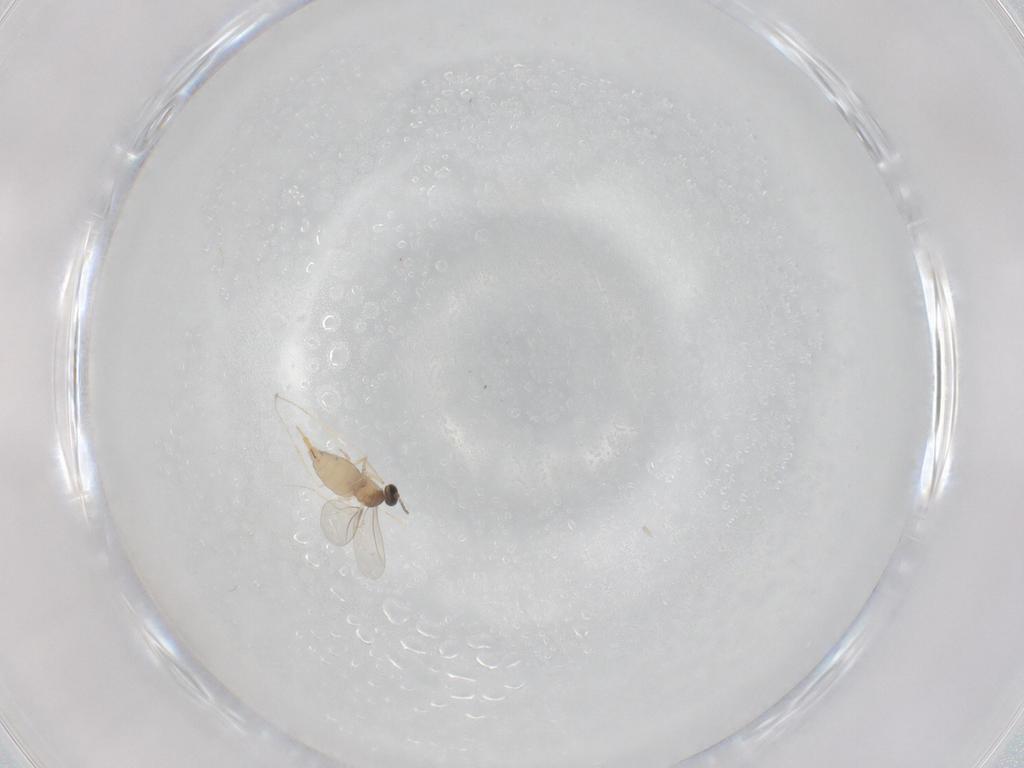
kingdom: Animalia
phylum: Arthropoda
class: Insecta
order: Diptera
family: Cecidomyiidae
